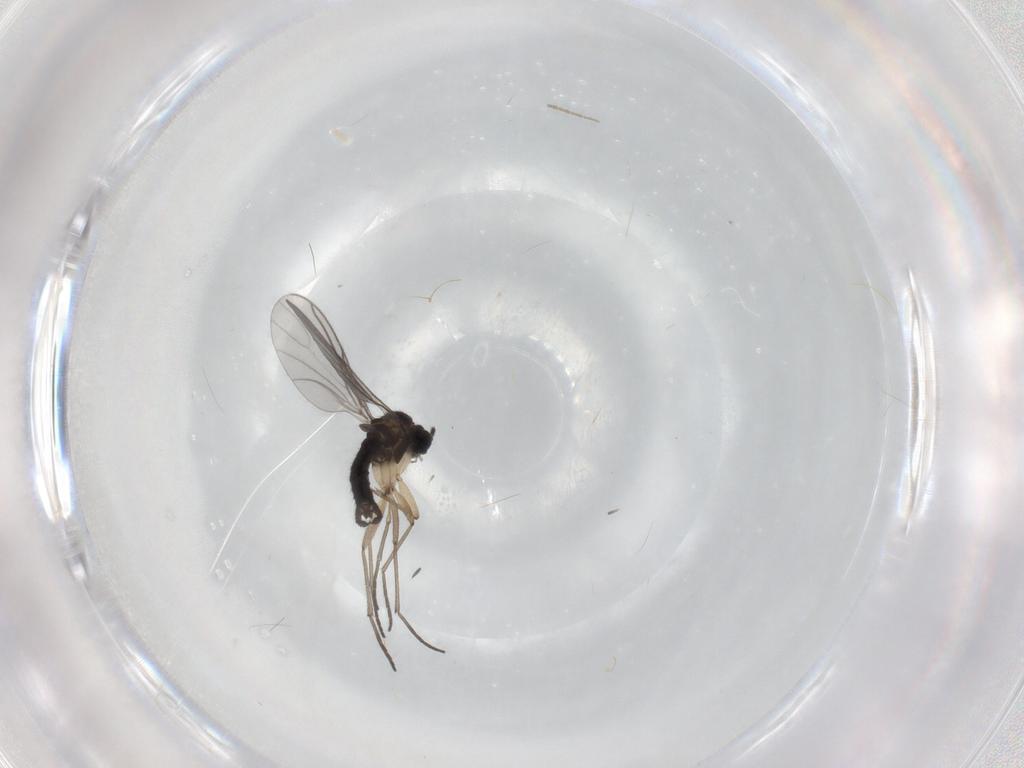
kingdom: Animalia
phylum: Arthropoda
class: Insecta
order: Diptera
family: Sciaridae
